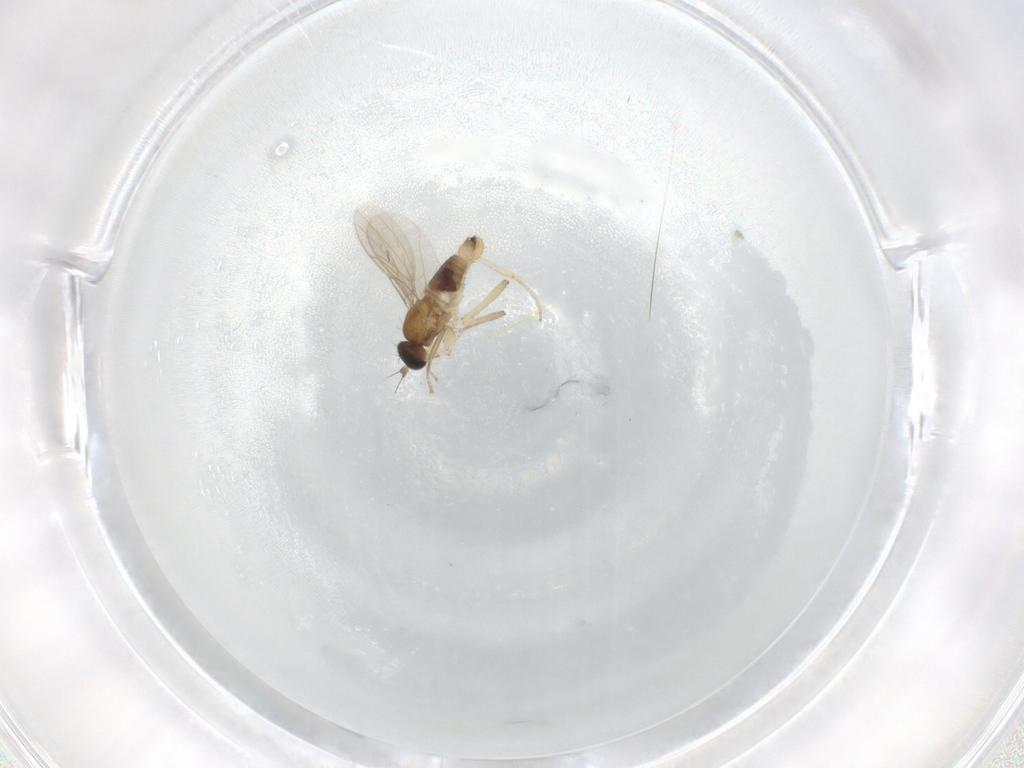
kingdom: Animalia
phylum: Arthropoda
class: Insecta
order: Diptera
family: Hybotidae
